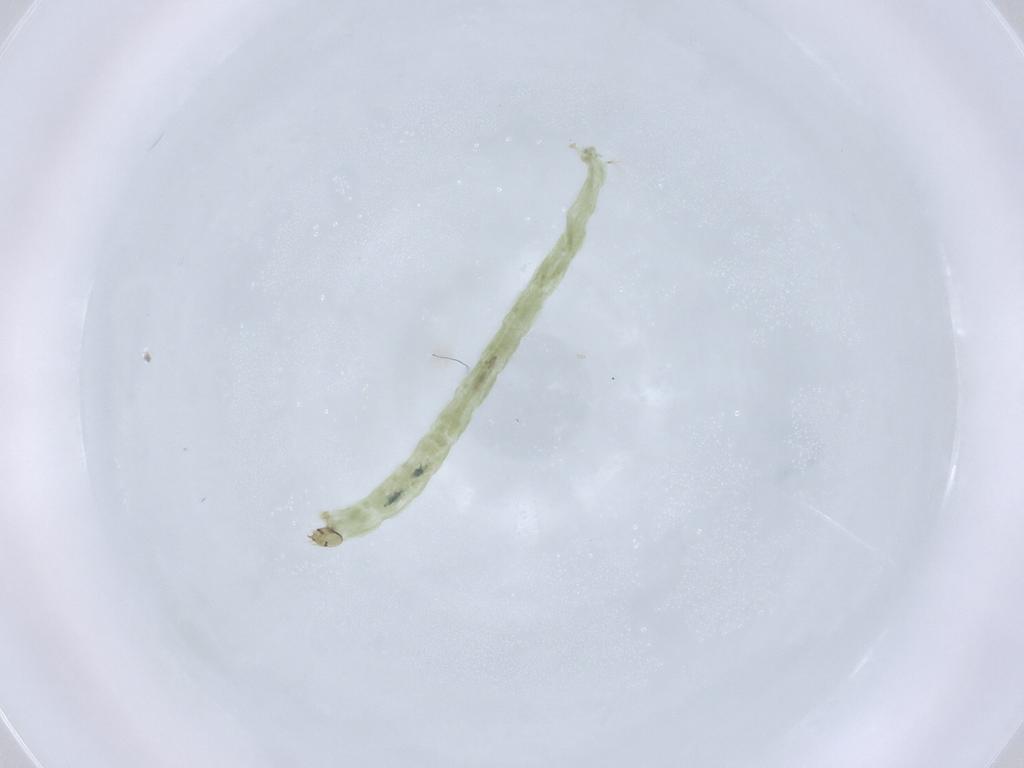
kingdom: Animalia
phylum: Arthropoda
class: Insecta
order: Diptera
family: Chironomidae
